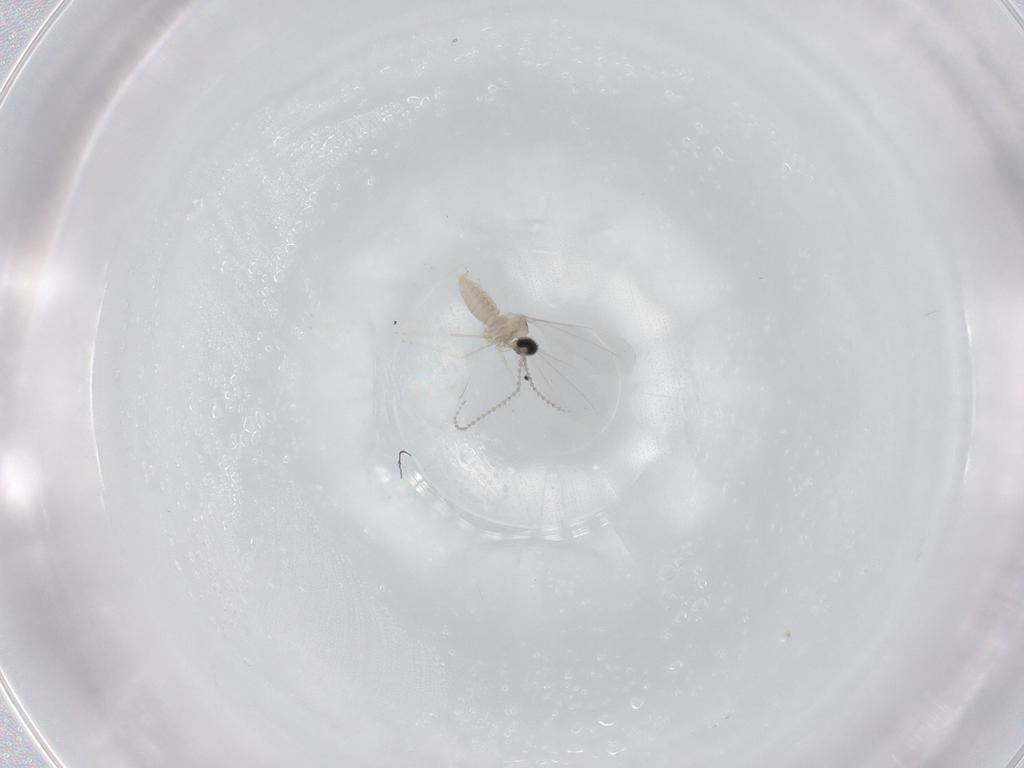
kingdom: Animalia
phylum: Arthropoda
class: Insecta
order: Diptera
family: Cecidomyiidae
